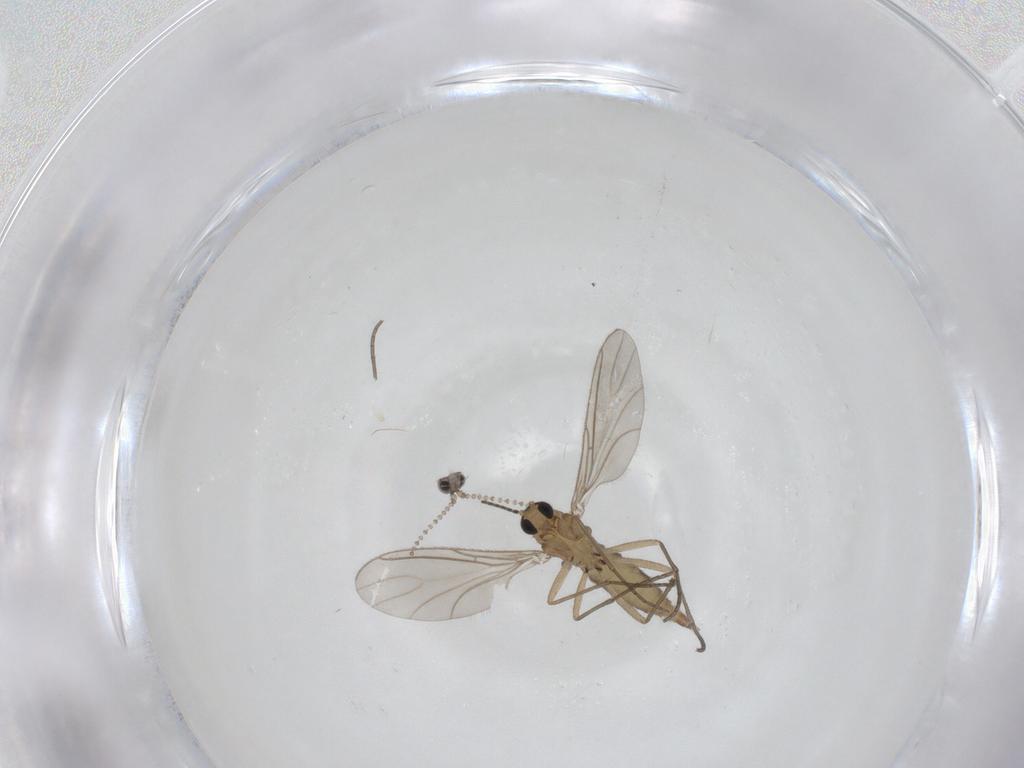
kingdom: Animalia
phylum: Arthropoda
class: Insecta
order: Diptera
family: Sciaridae
